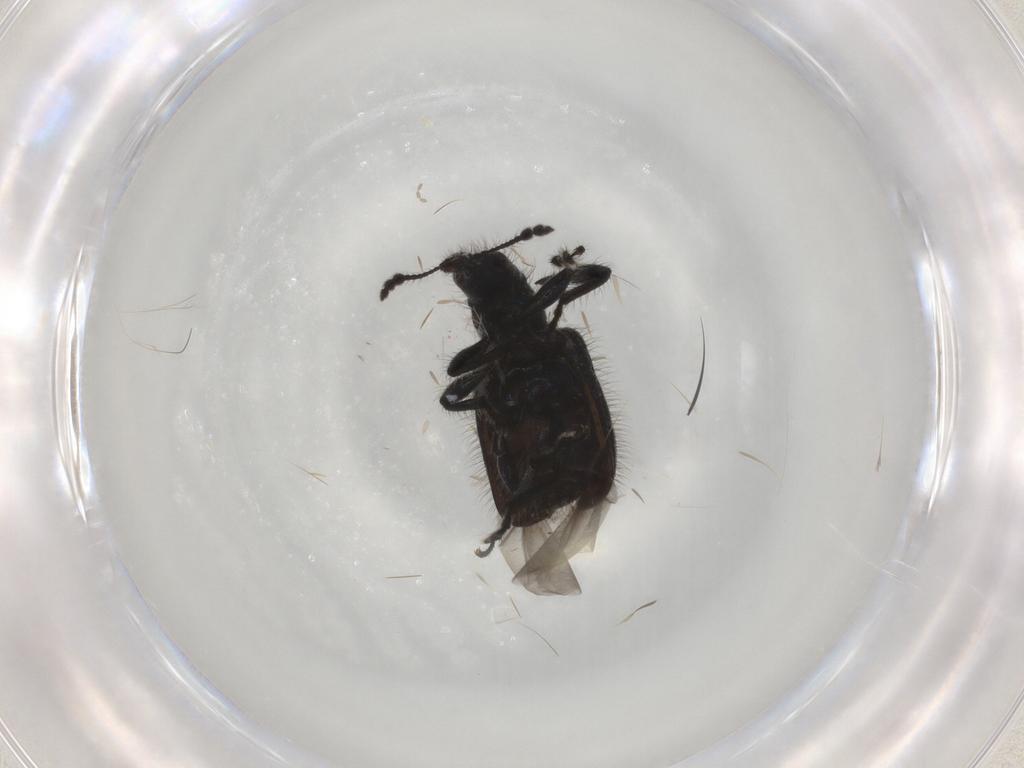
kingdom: Animalia
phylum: Arthropoda
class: Insecta
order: Coleoptera
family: Attelabidae
